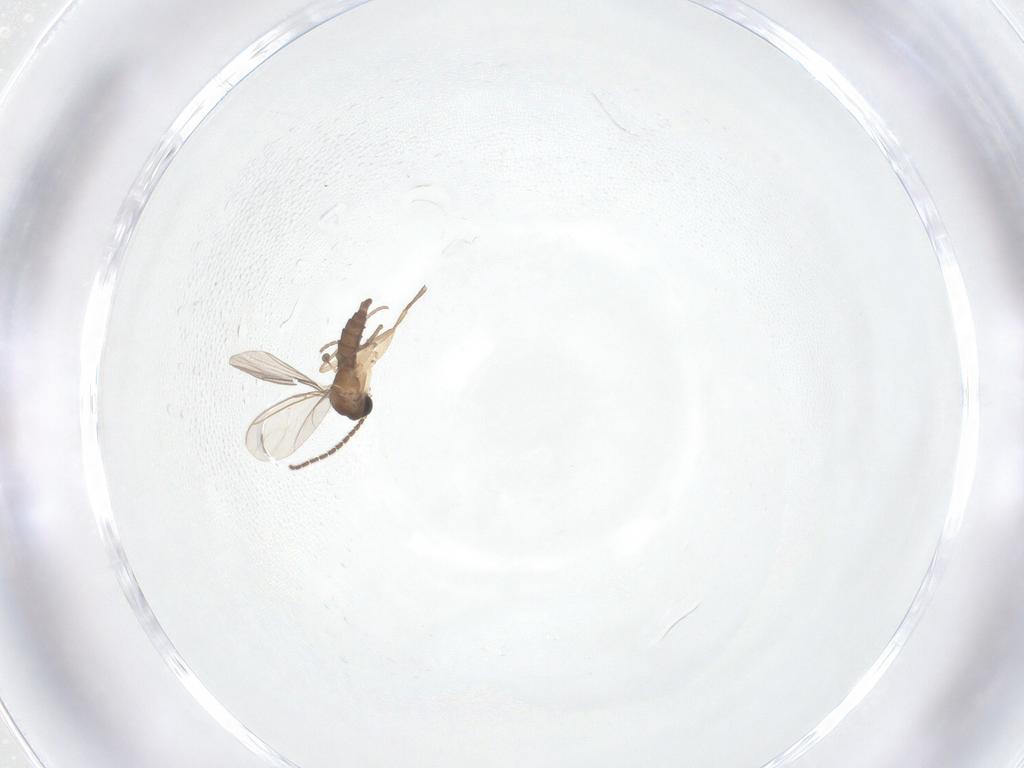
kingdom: Animalia
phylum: Arthropoda
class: Insecta
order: Diptera
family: Sciaridae
